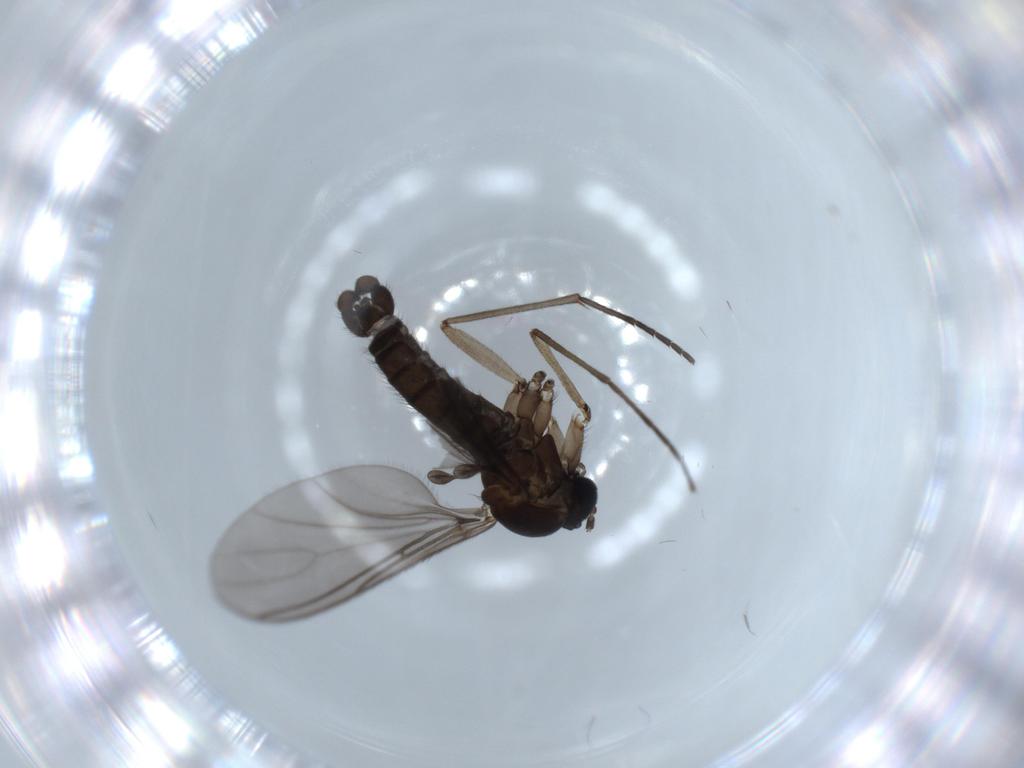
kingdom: Animalia
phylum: Arthropoda
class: Insecta
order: Diptera
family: Sciaridae
